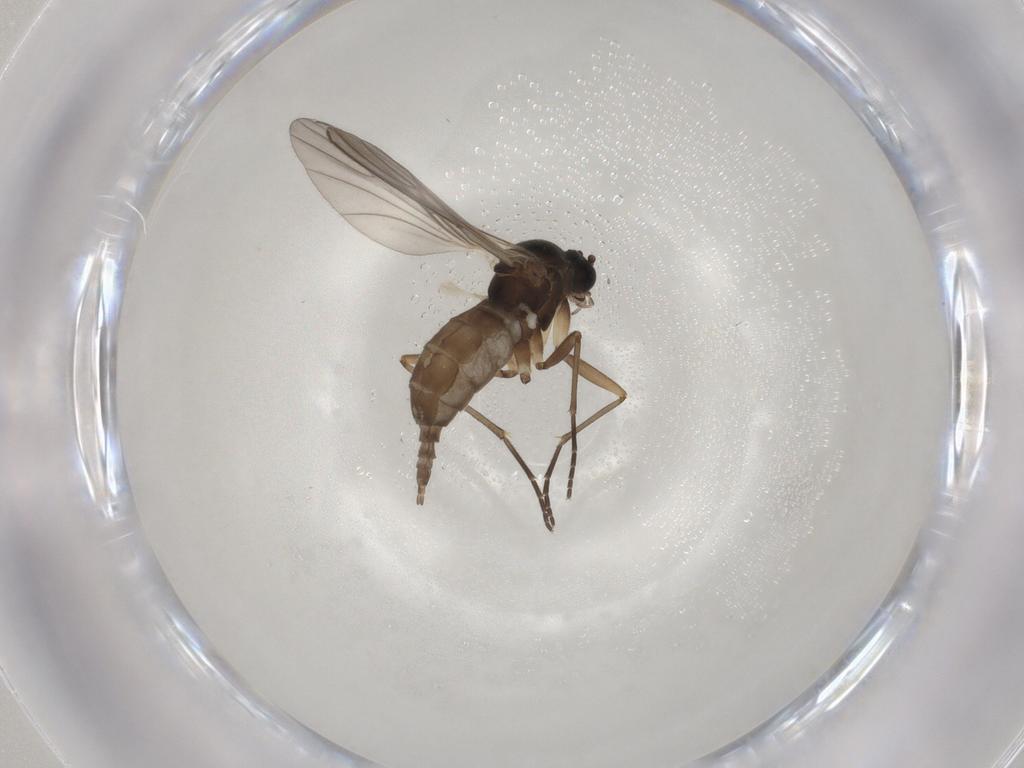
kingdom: Animalia
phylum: Arthropoda
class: Insecta
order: Diptera
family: Sciaridae
